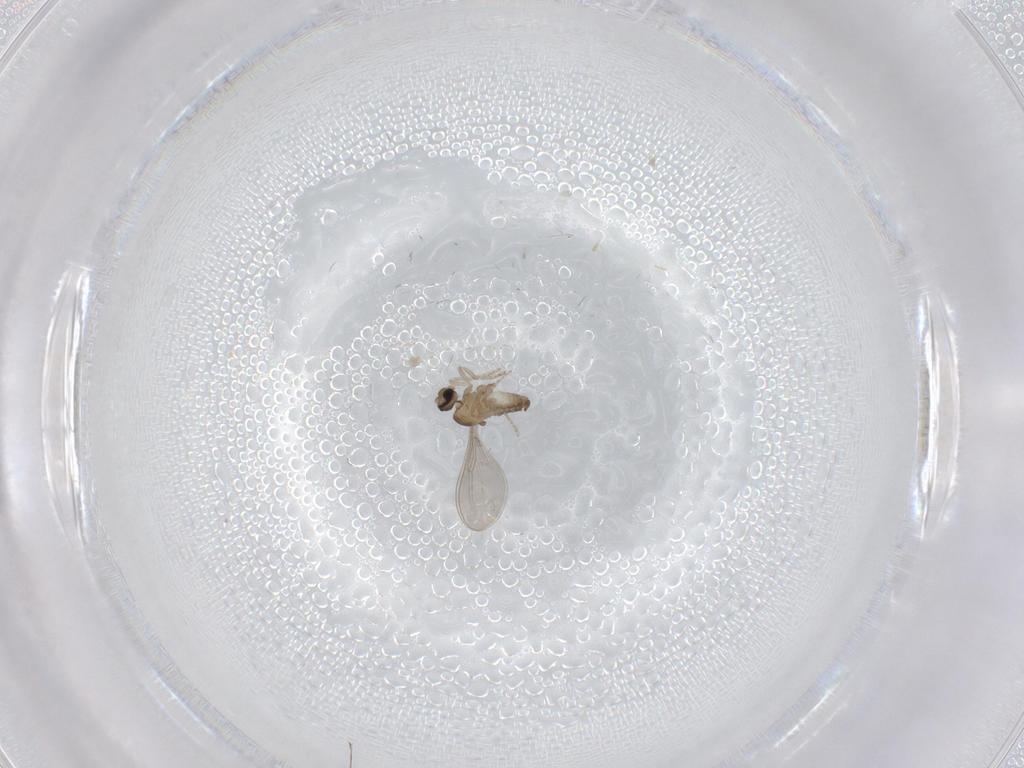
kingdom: Animalia
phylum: Arthropoda
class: Insecta
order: Diptera
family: Cecidomyiidae
